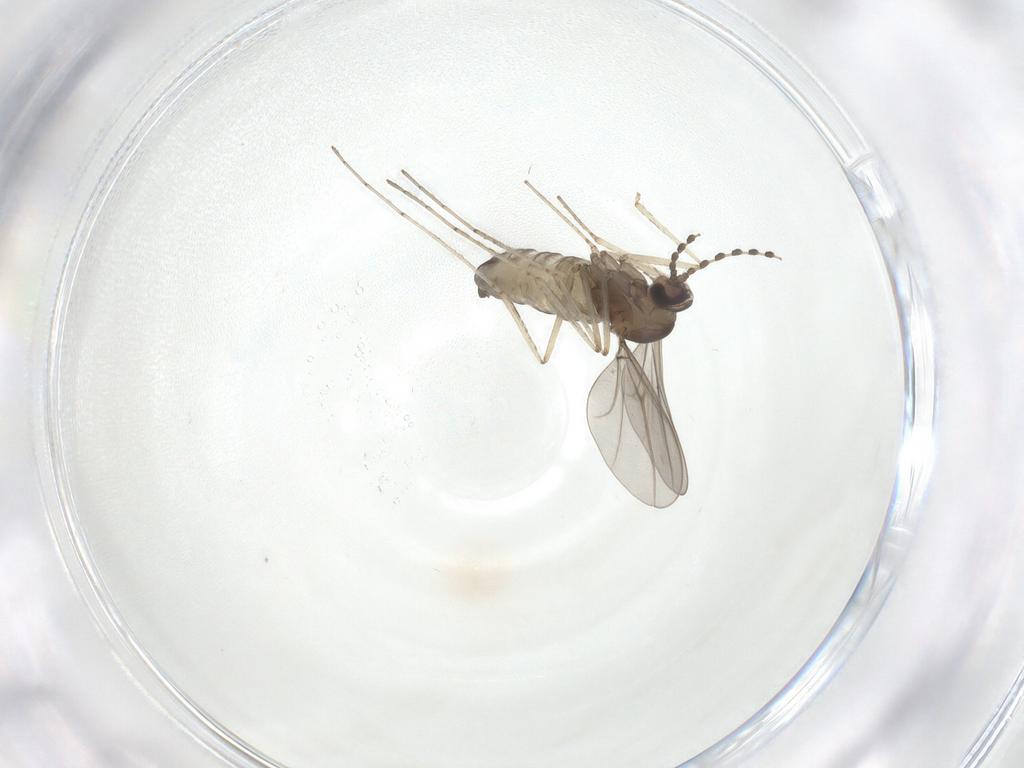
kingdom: Animalia
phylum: Arthropoda
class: Insecta
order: Diptera
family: Cecidomyiidae
